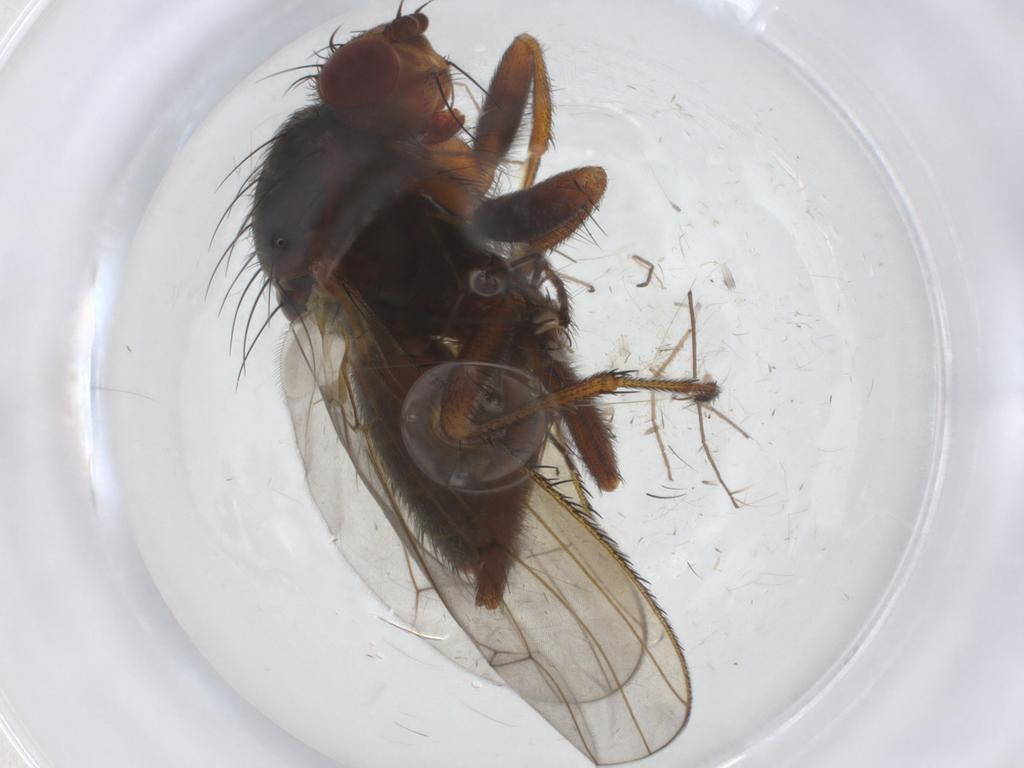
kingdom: Animalia
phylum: Arthropoda
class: Insecta
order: Diptera
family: Heleomyzidae
